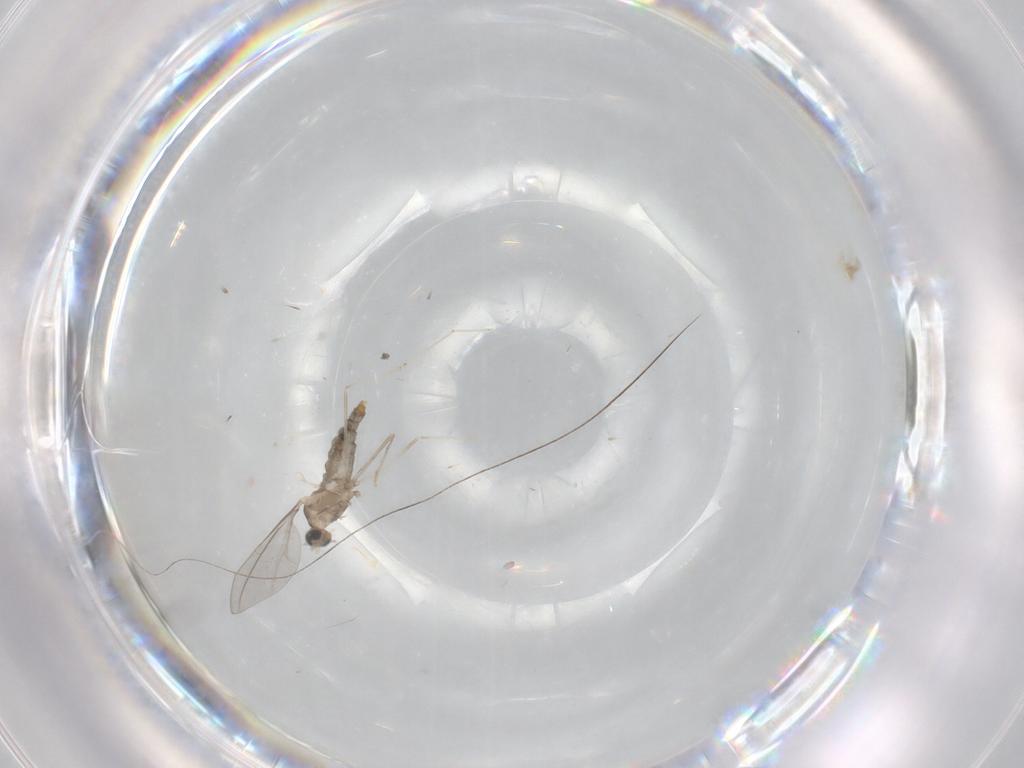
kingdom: Animalia
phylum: Arthropoda
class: Insecta
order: Diptera
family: Cecidomyiidae
